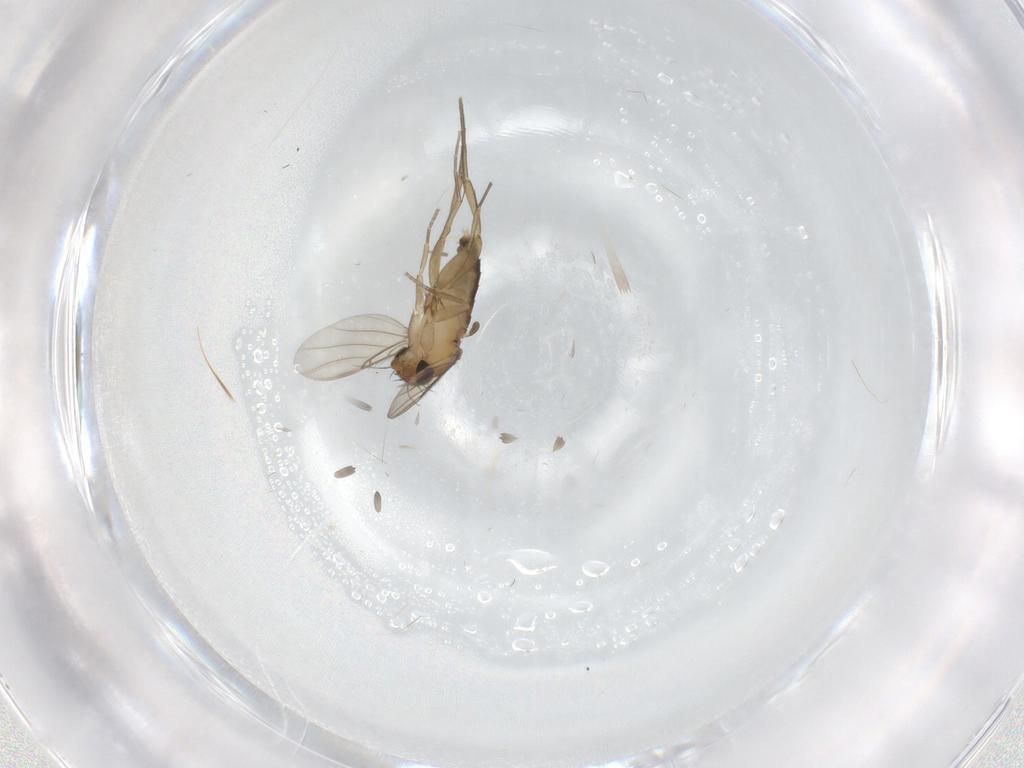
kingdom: Animalia
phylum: Arthropoda
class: Insecta
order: Diptera
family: Phoridae
